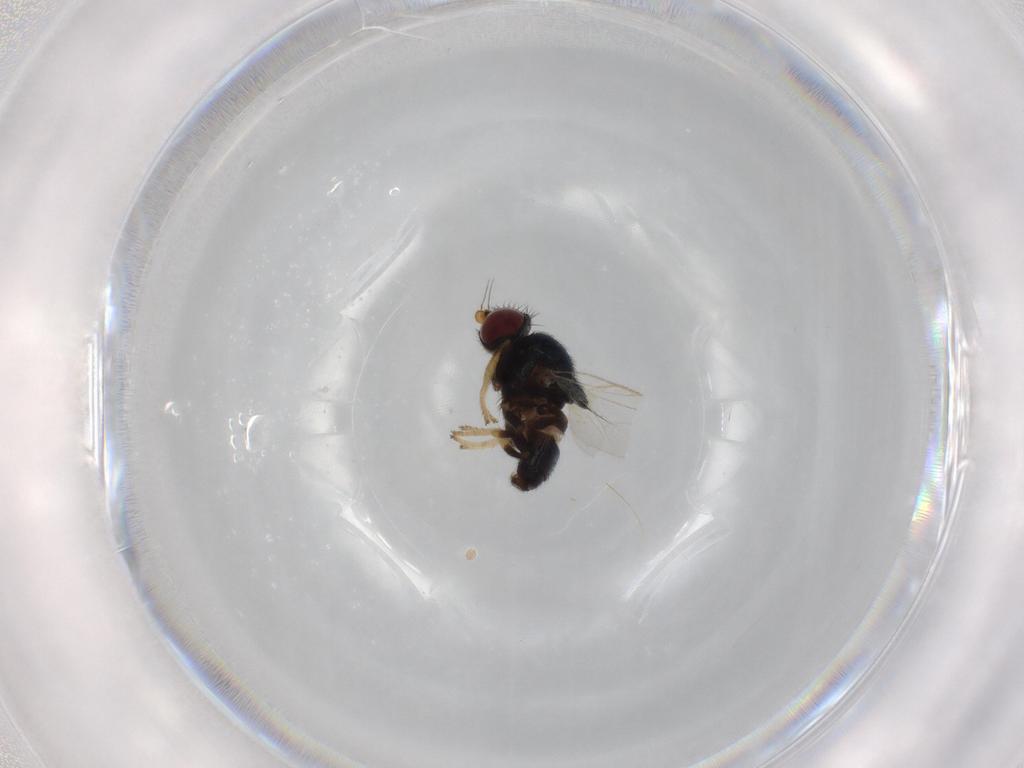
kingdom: Animalia
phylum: Arthropoda
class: Insecta
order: Diptera
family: Chloropidae
